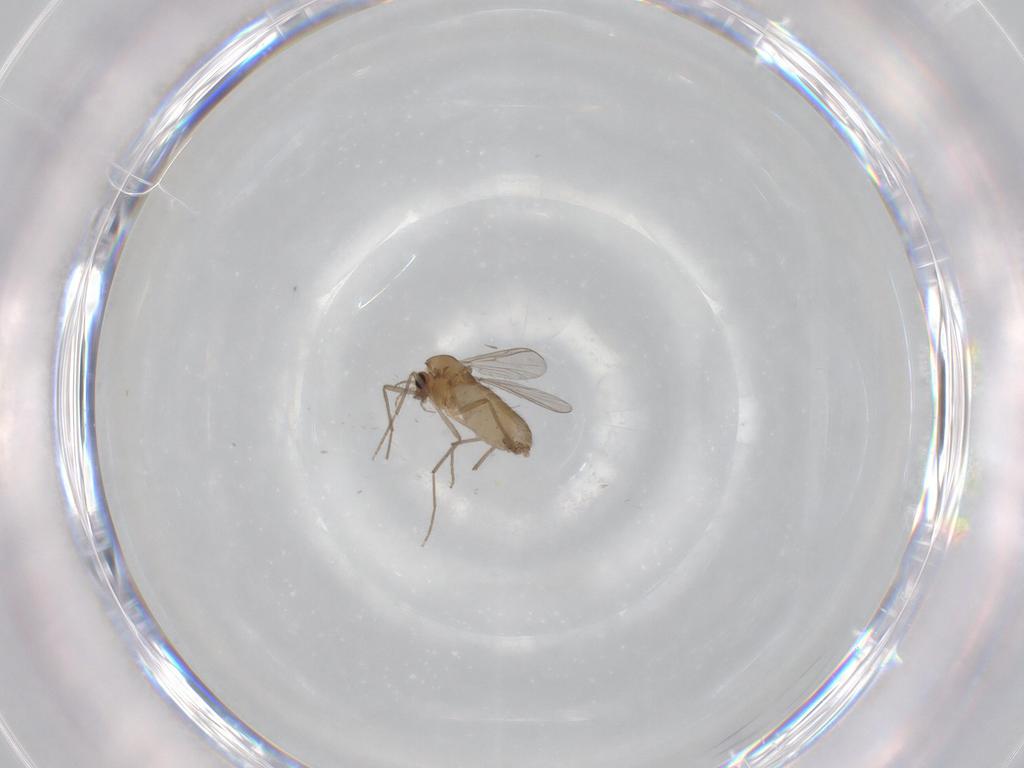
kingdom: Animalia
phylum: Arthropoda
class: Insecta
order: Diptera
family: Chironomidae
